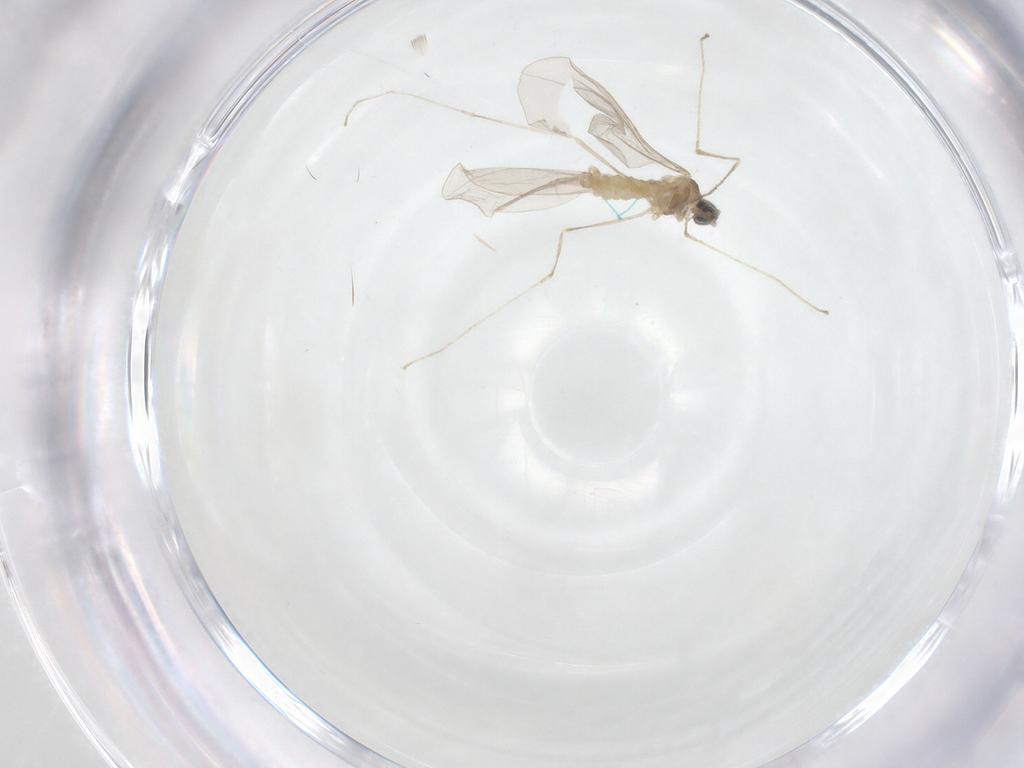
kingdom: Animalia
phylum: Arthropoda
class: Insecta
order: Diptera
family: Cecidomyiidae
